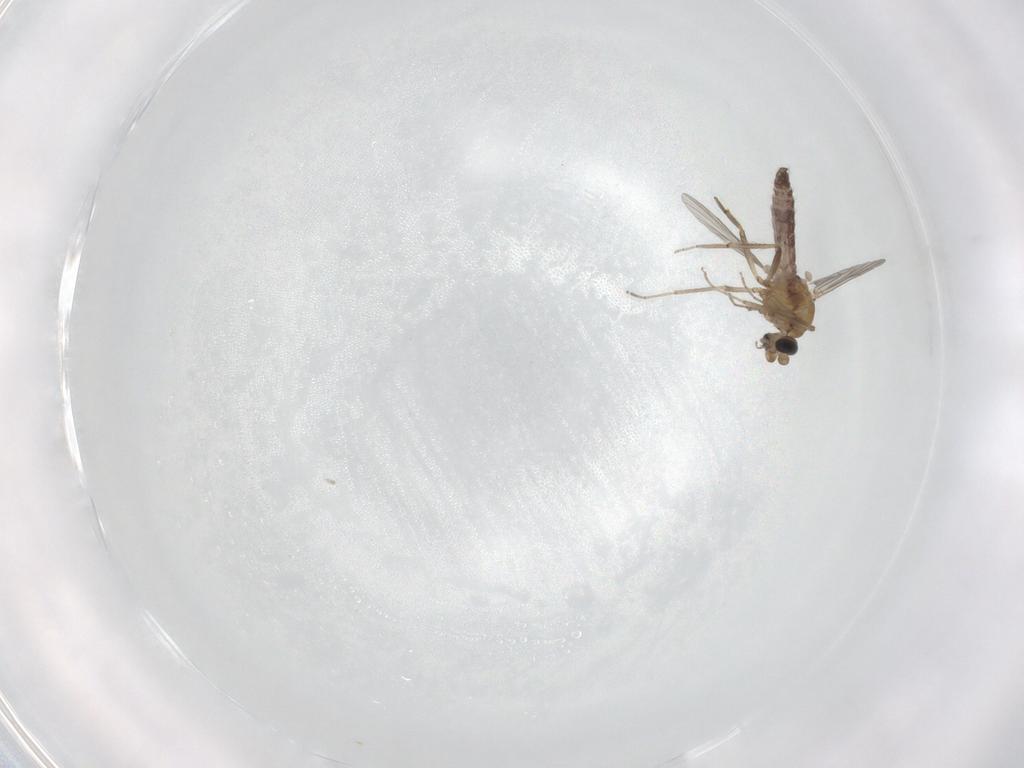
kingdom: Animalia
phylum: Arthropoda
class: Insecta
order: Diptera
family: Ceratopogonidae
